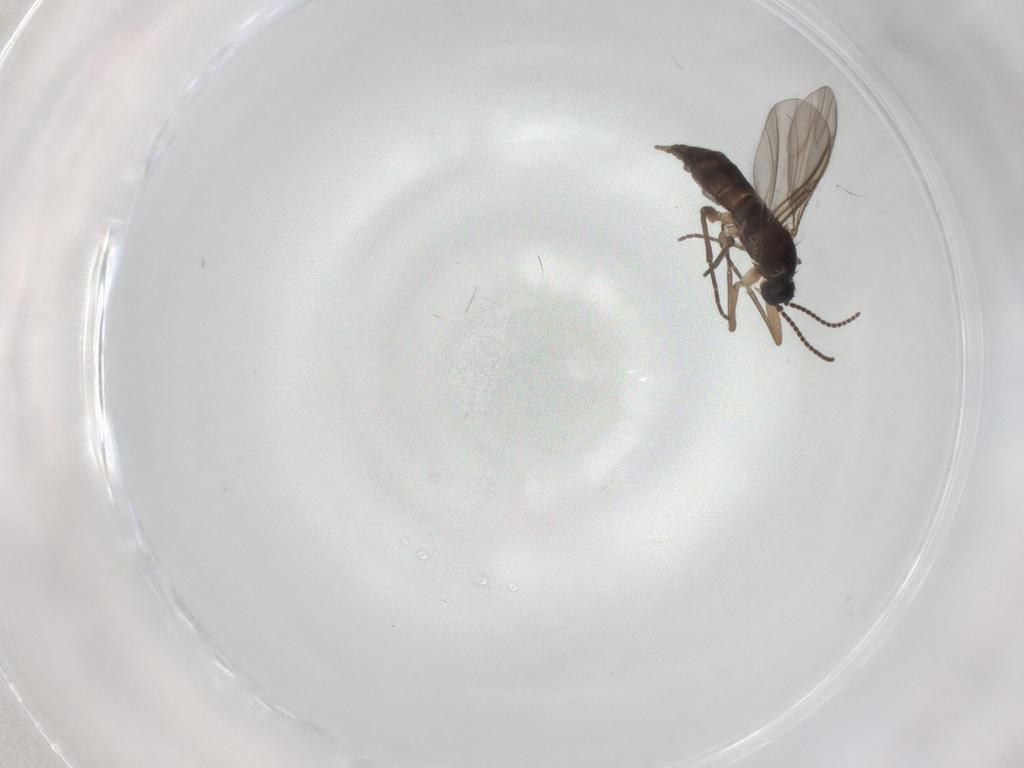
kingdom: Animalia
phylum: Arthropoda
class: Insecta
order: Diptera
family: Sciaridae
